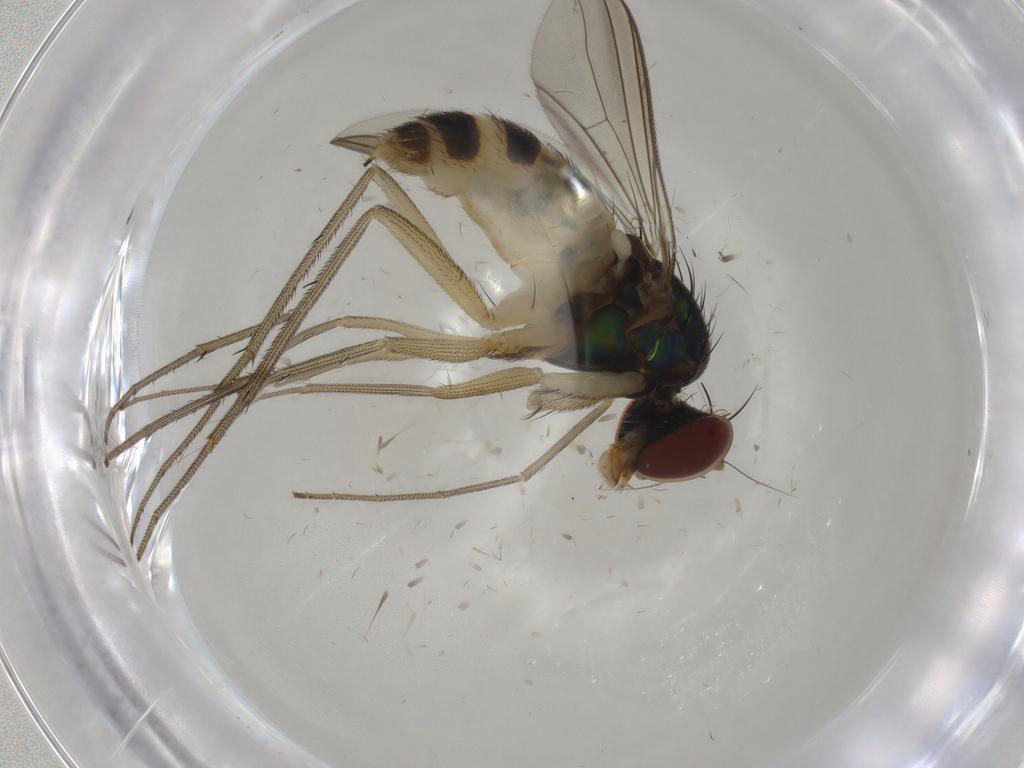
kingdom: Animalia
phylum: Arthropoda
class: Insecta
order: Diptera
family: Dolichopodidae
